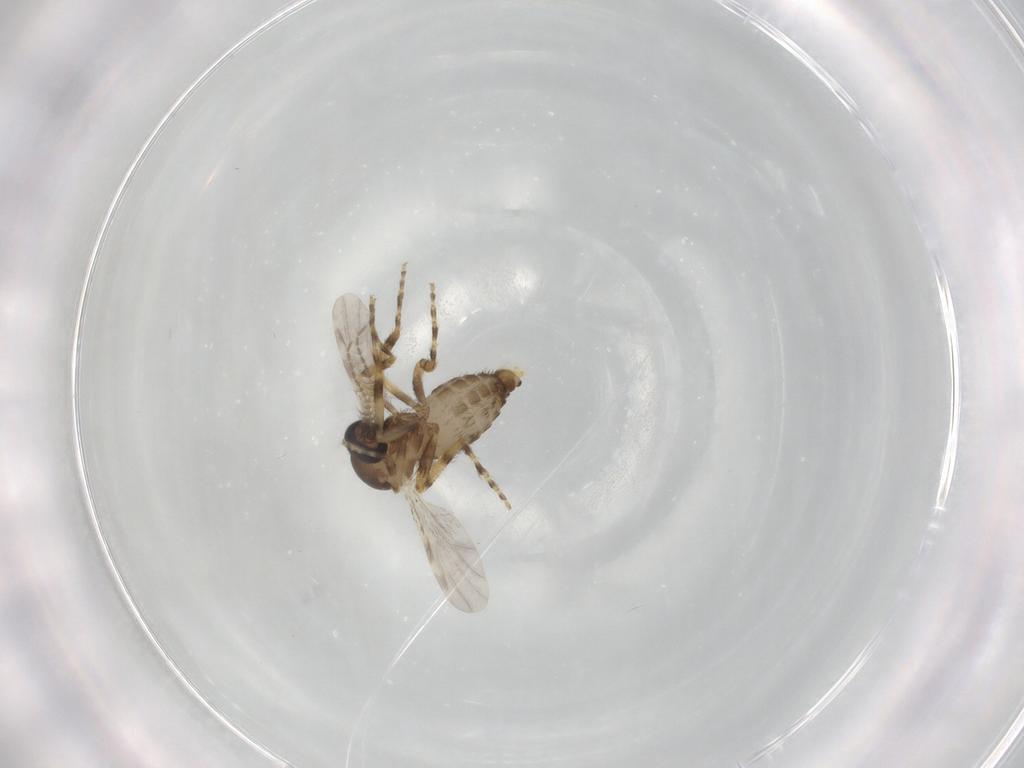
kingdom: Animalia
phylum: Arthropoda
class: Insecta
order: Diptera
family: Ceratopogonidae
